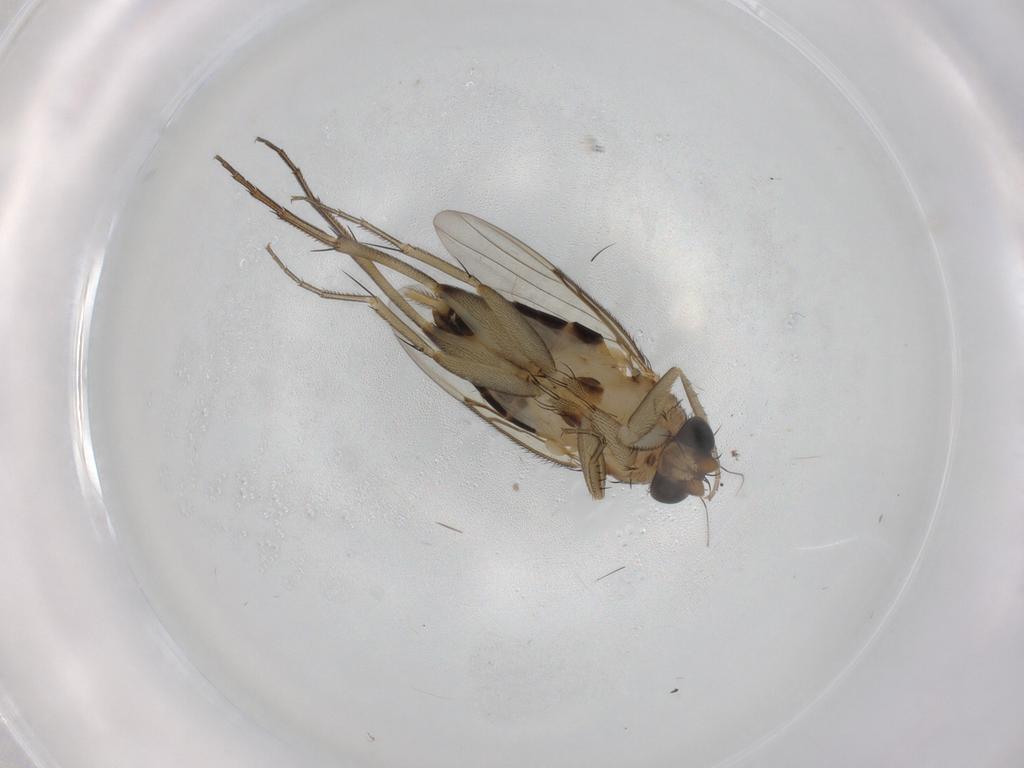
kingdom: Animalia
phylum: Arthropoda
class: Insecta
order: Diptera
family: Phoridae
